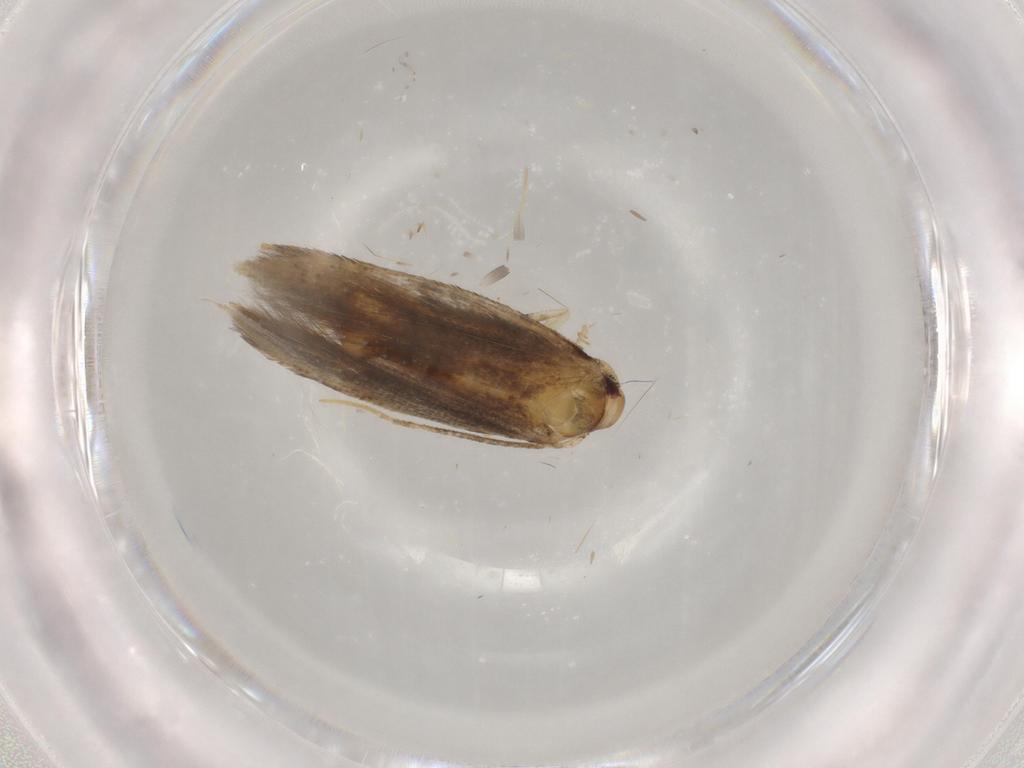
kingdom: Animalia
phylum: Arthropoda
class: Insecta
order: Lepidoptera
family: Cosmopterigidae
